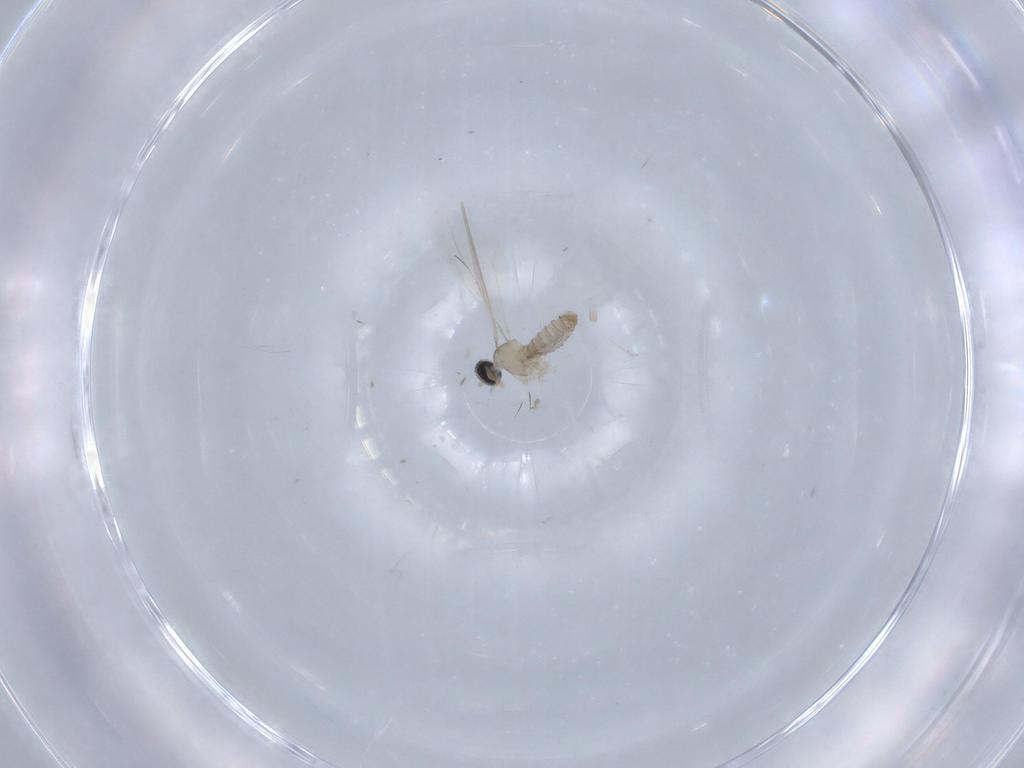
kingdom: Animalia
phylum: Arthropoda
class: Insecta
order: Diptera
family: Cecidomyiidae
